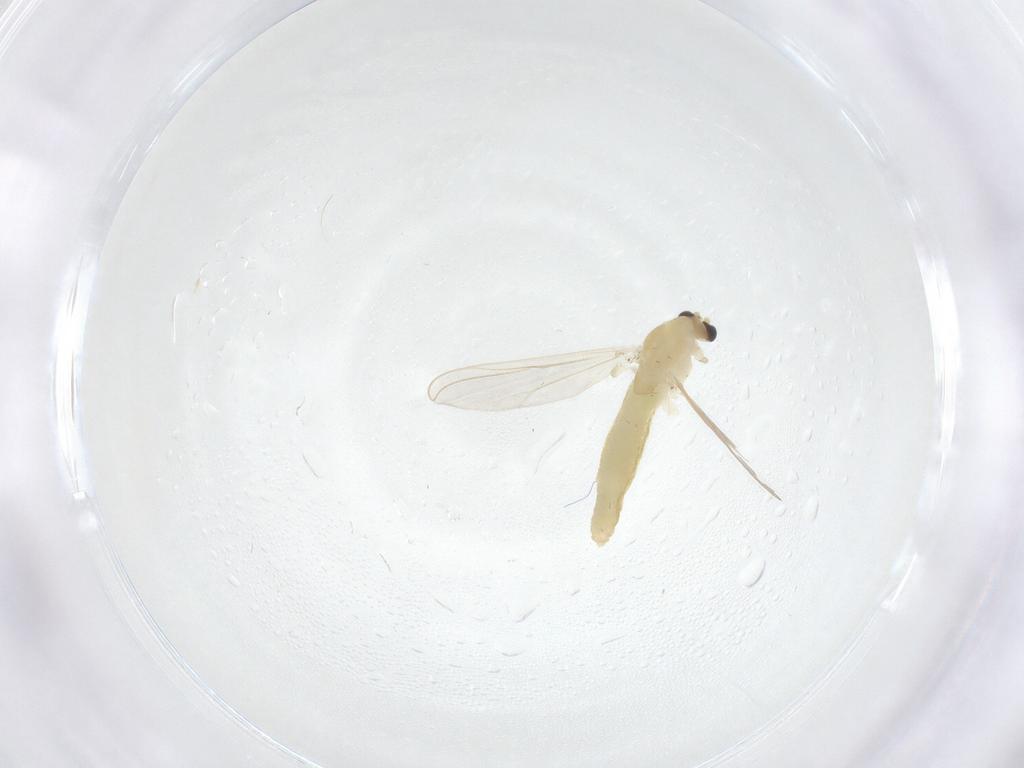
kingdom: Animalia
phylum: Arthropoda
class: Insecta
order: Diptera
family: Chironomidae
